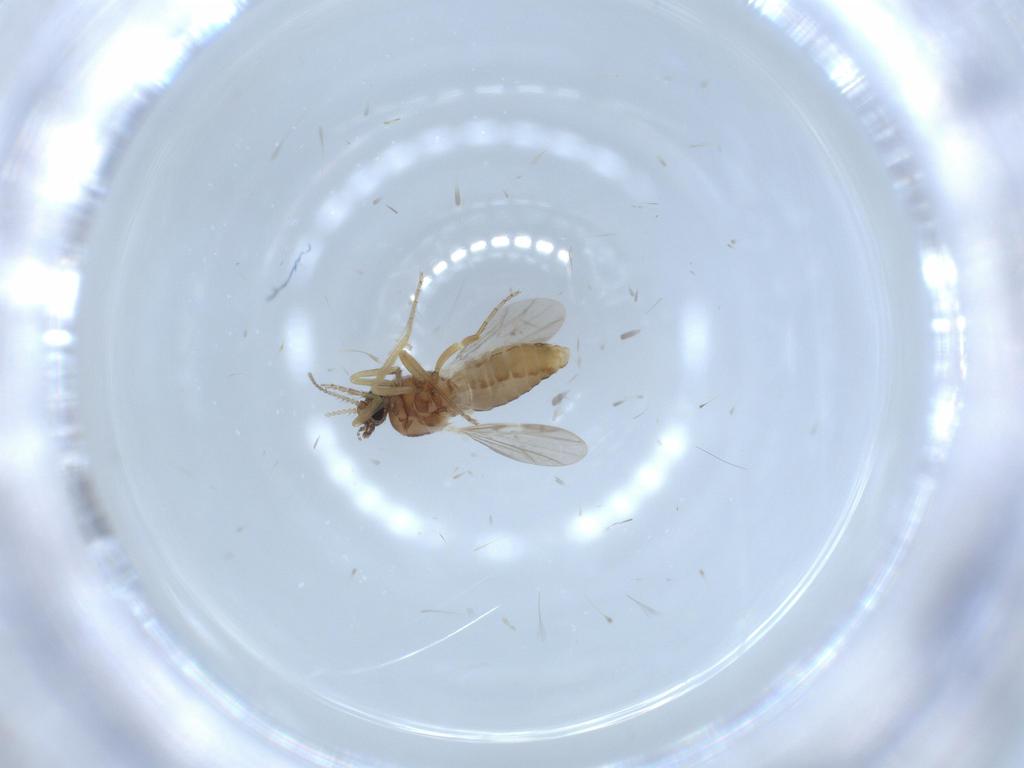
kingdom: Animalia
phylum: Arthropoda
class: Insecta
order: Diptera
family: Ceratopogonidae
